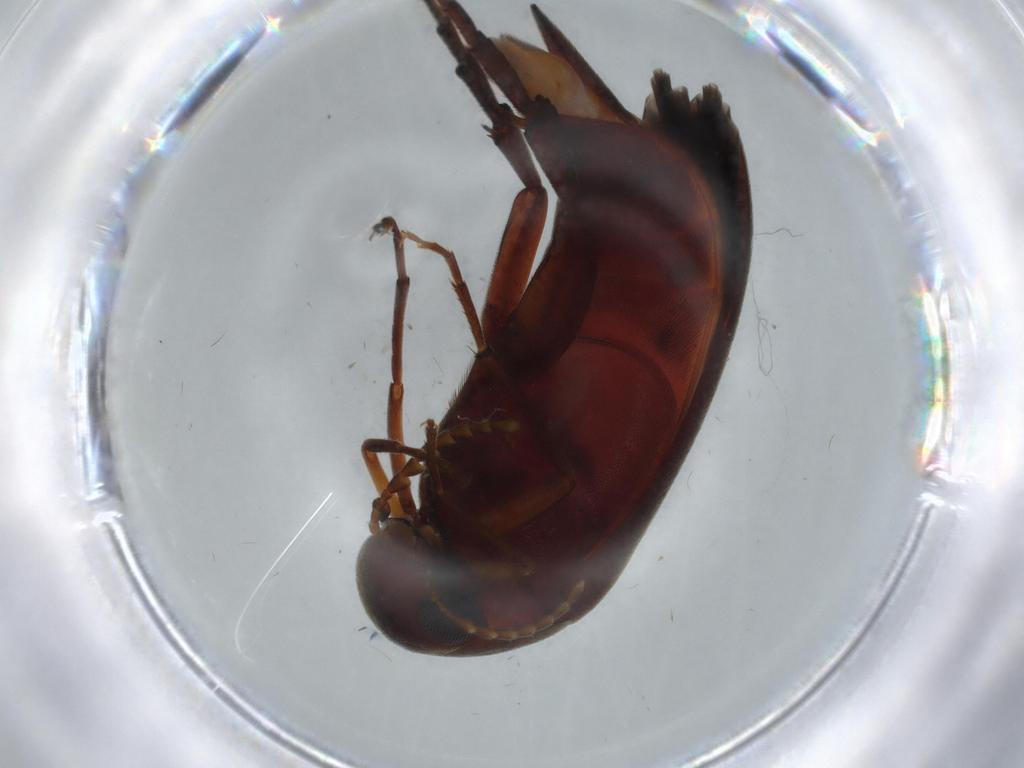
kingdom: Animalia
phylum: Arthropoda
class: Insecta
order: Coleoptera
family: Mordellidae
